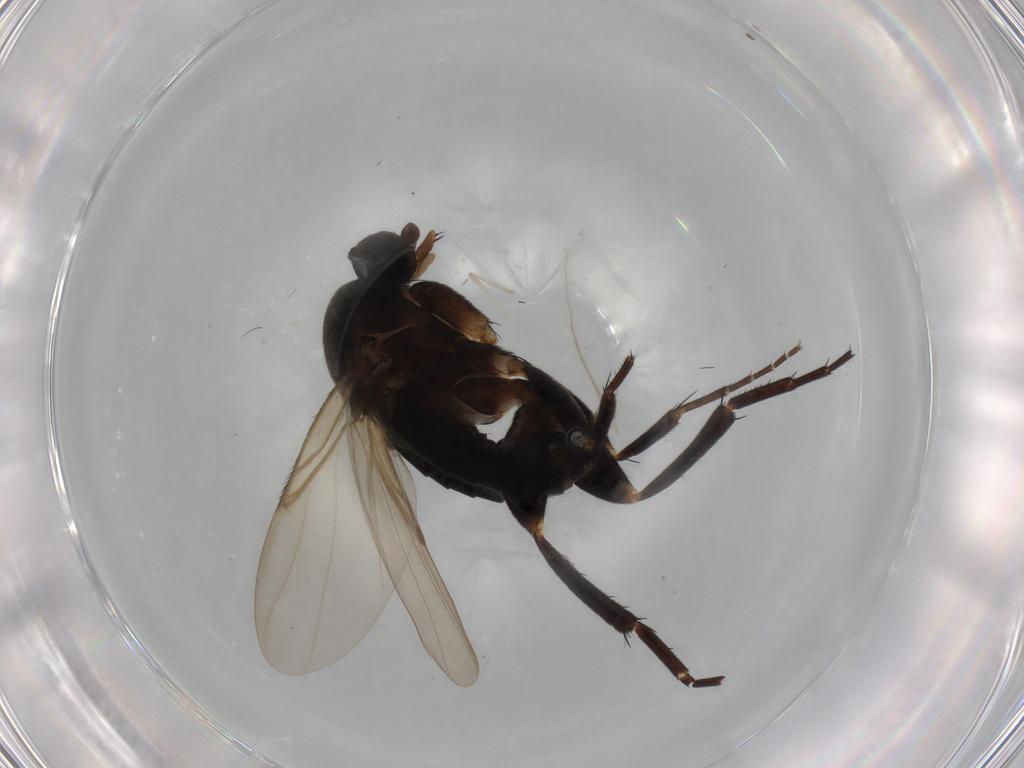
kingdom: Animalia
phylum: Arthropoda
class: Insecta
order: Diptera
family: Phoridae
